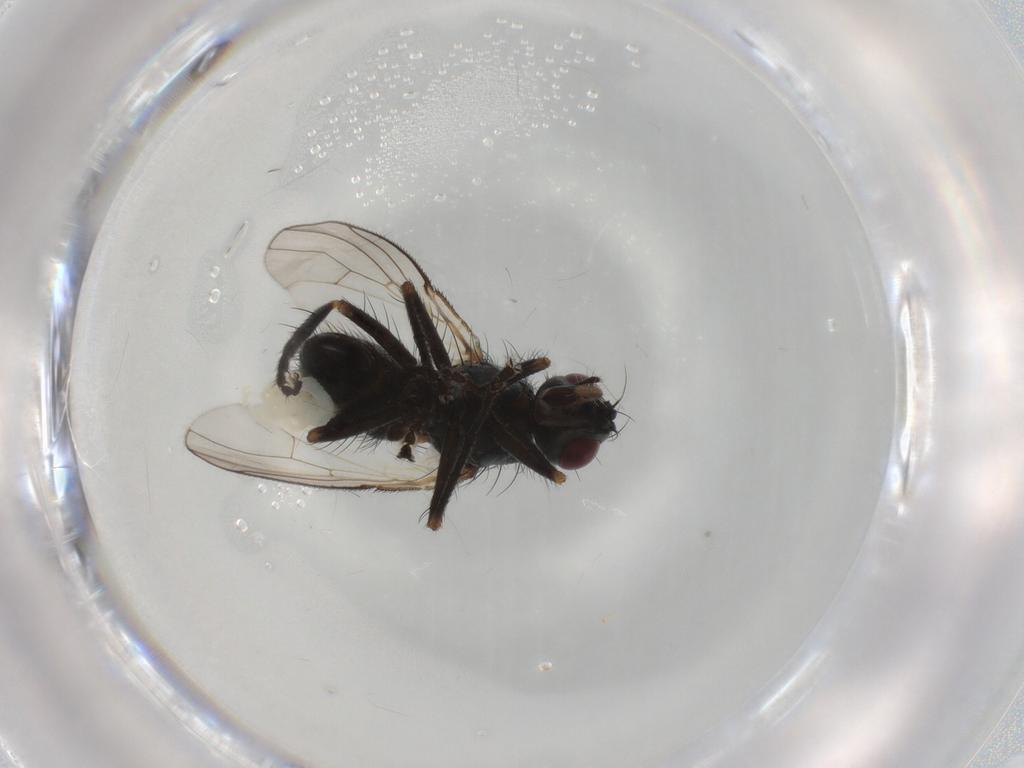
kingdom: Animalia
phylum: Arthropoda
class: Insecta
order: Diptera
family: Muscidae
